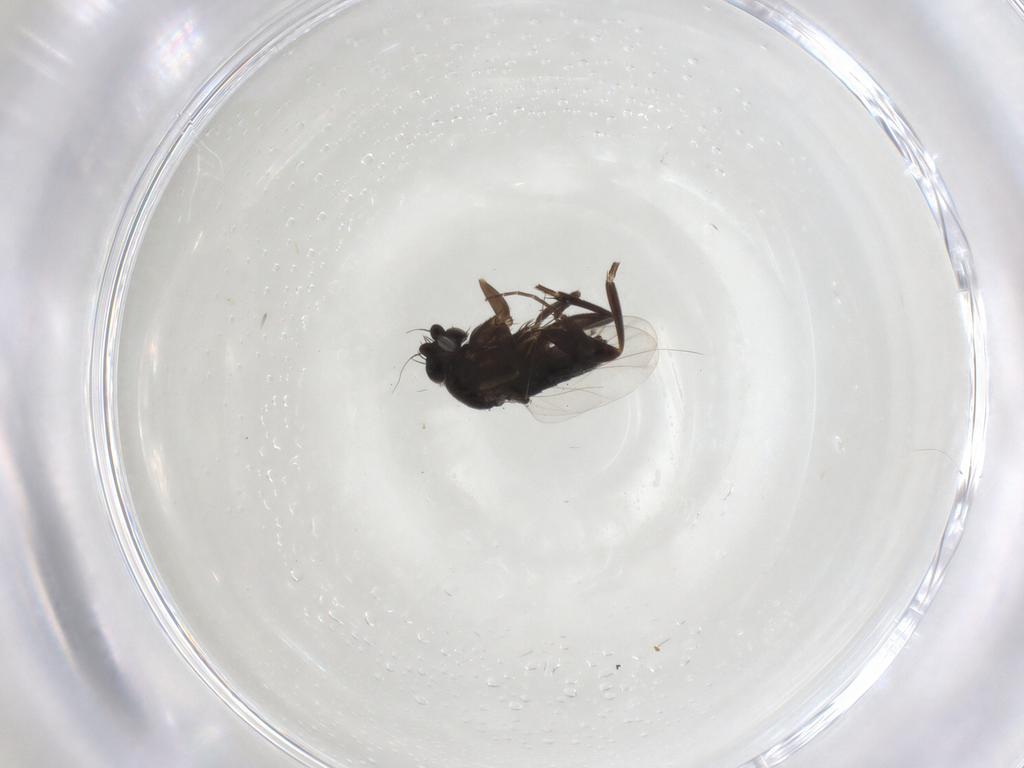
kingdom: Animalia
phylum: Arthropoda
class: Insecta
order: Diptera
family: Phoridae
